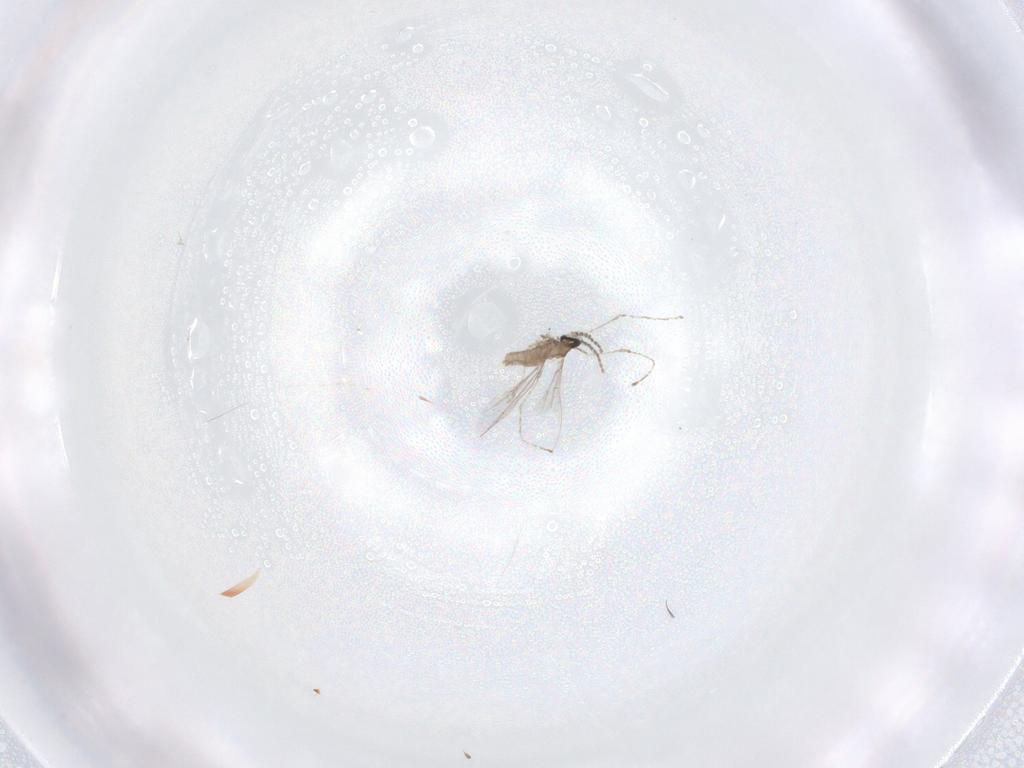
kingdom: Animalia
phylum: Arthropoda
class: Insecta
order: Diptera
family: Cecidomyiidae
